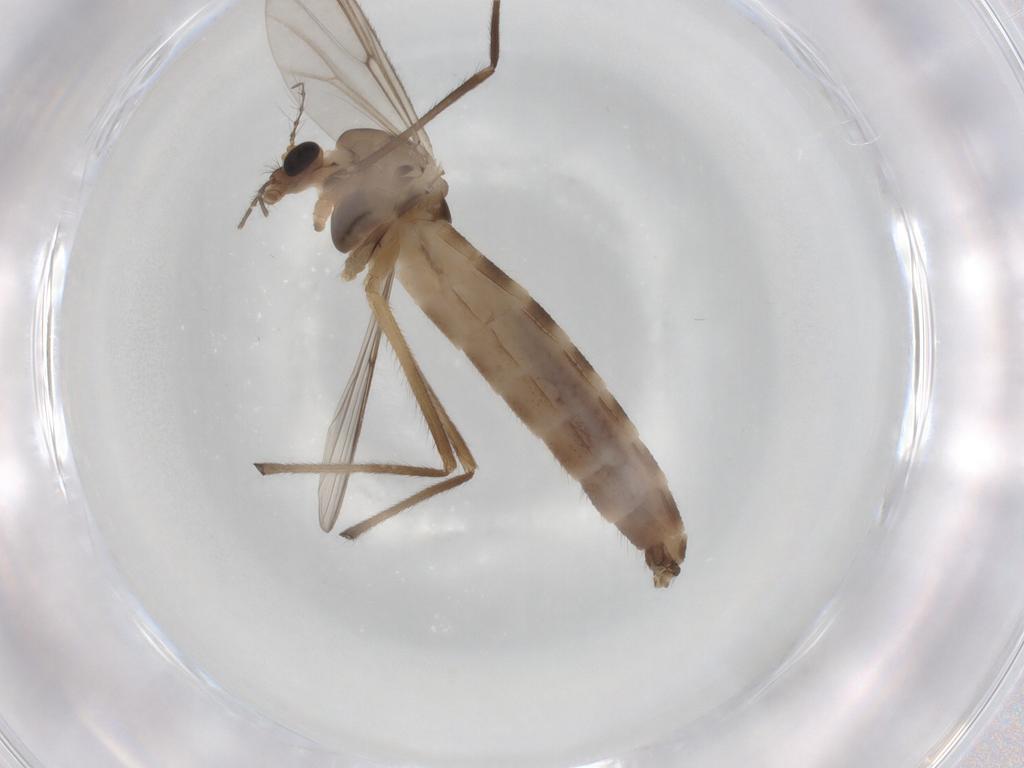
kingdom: Animalia
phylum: Arthropoda
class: Insecta
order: Diptera
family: Chironomidae
